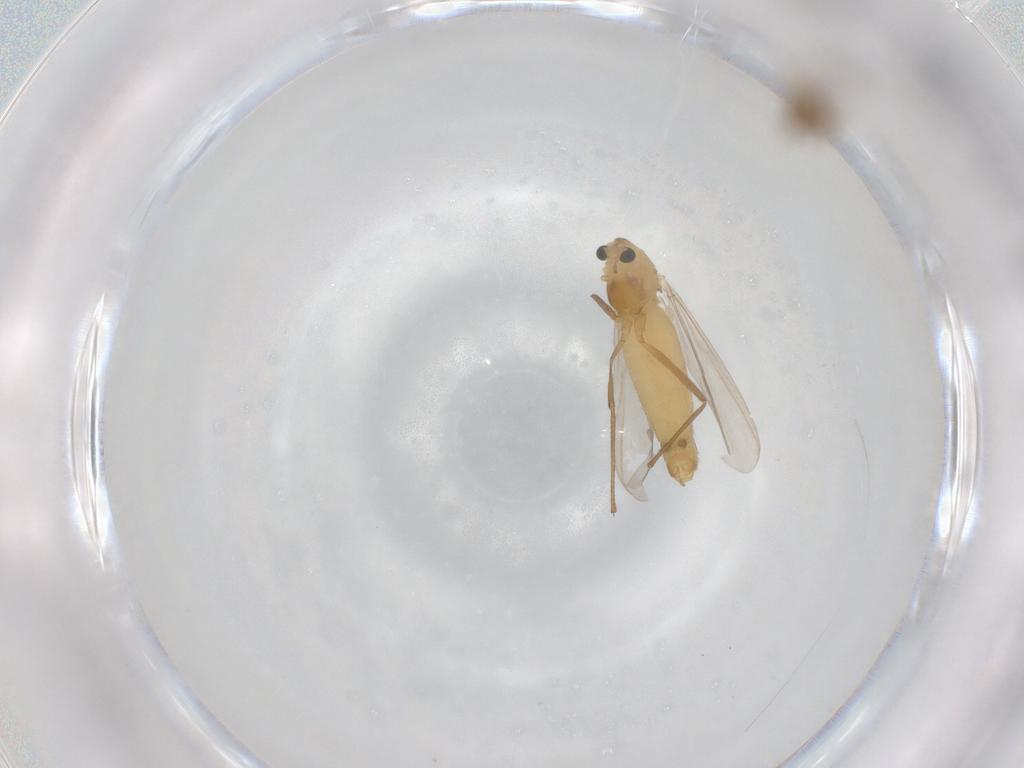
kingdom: Animalia
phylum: Arthropoda
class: Insecta
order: Diptera
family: Chironomidae
